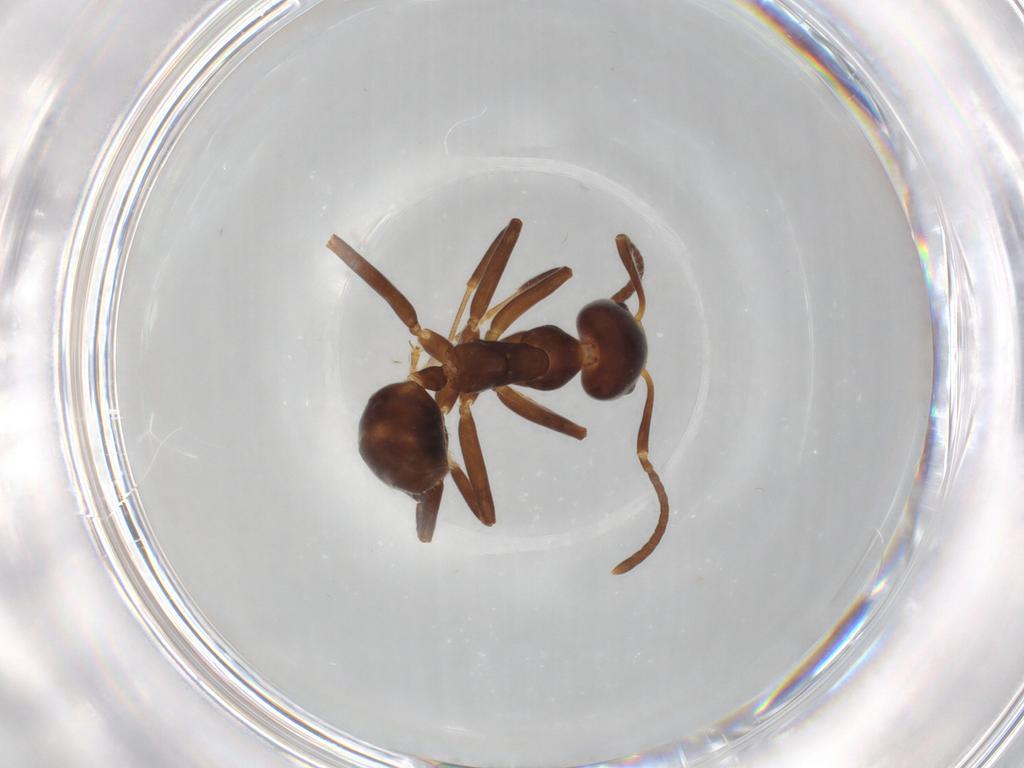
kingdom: Animalia
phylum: Arthropoda
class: Insecta
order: Hymenoptera
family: Formicidae
